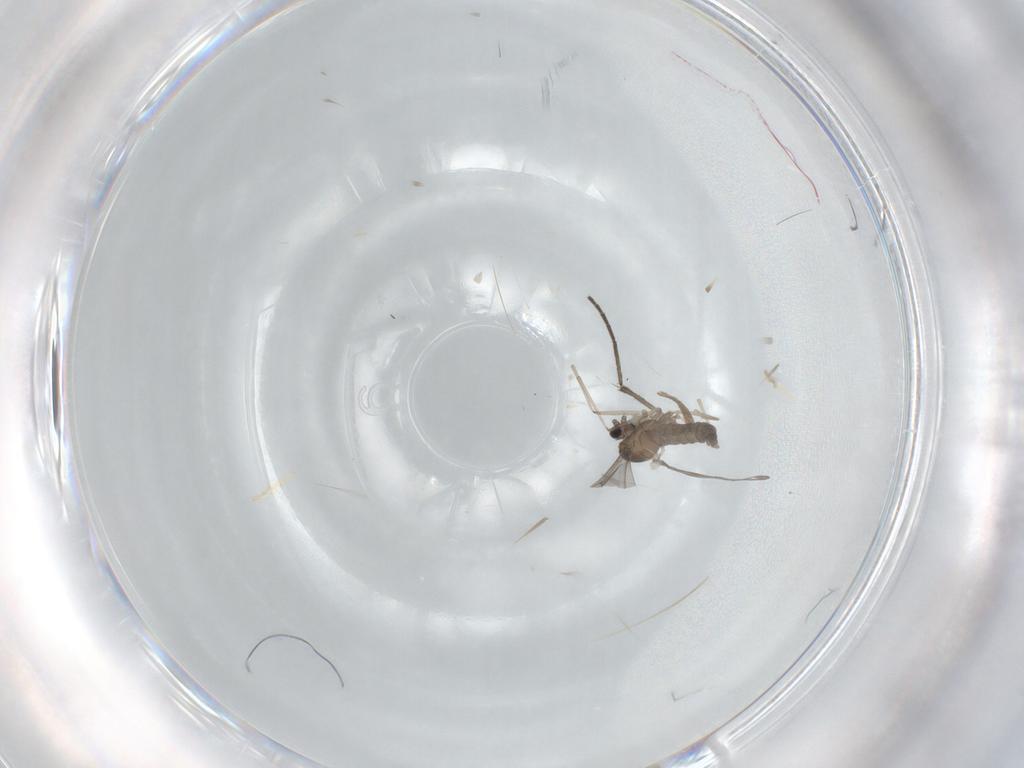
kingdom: Animalia
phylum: Arthropoda
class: Insecta
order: Diptera
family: Sciaridae
